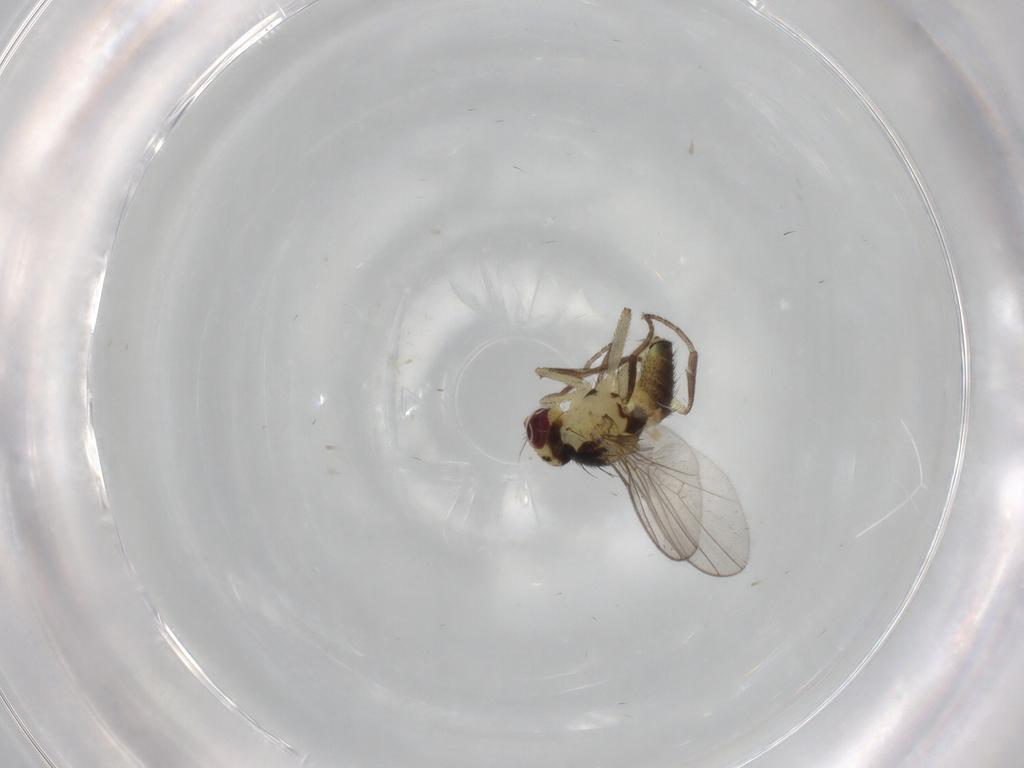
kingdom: Animalia
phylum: Arthropoda
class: Insecta
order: Diptera
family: Agromyzidae
